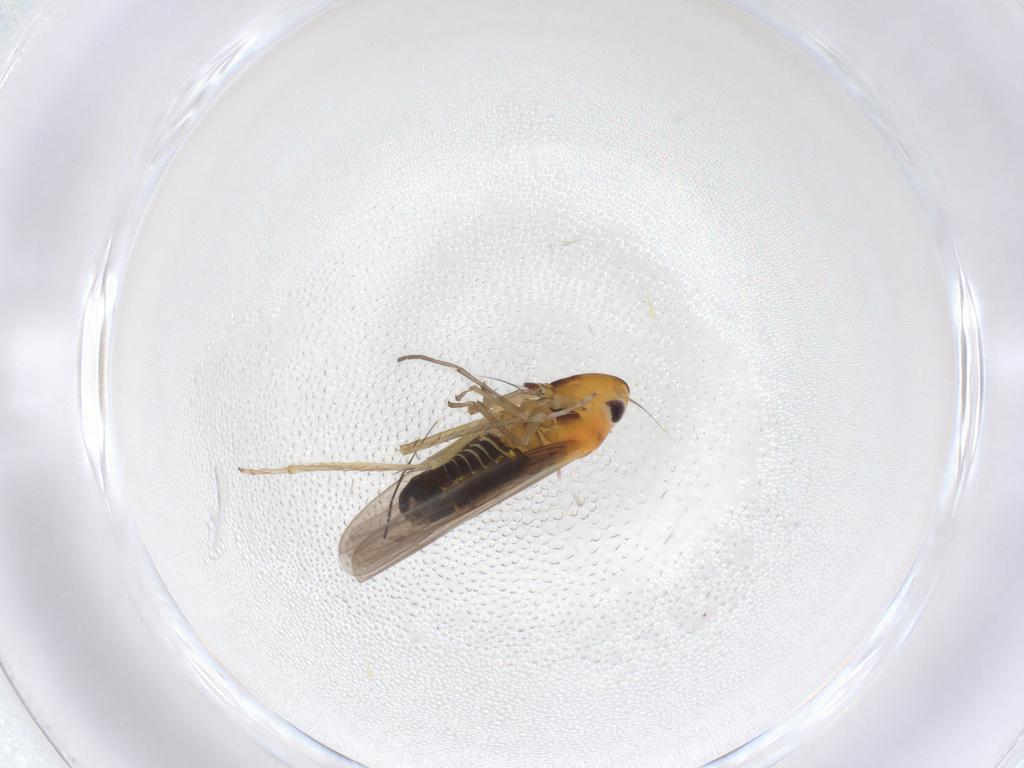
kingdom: Animalia
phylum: Arthropoda
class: Insecta
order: Hemiptera
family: Cicadellidae
